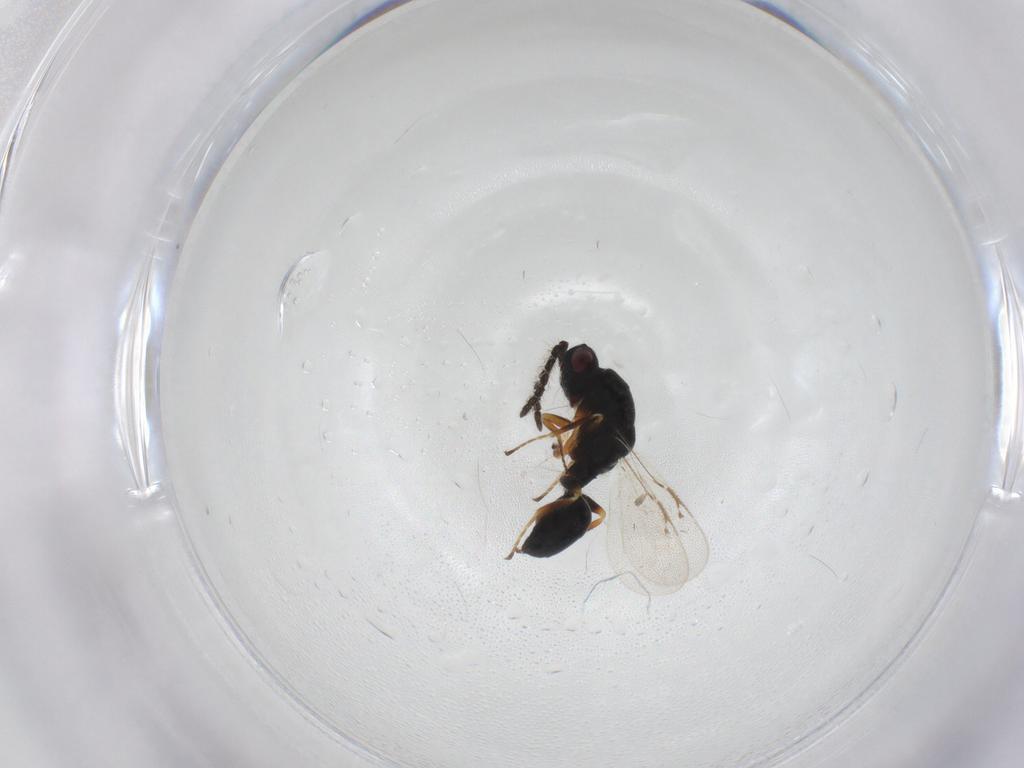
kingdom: Animalia
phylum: Arthropoda
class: Insecta
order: Hymenoptera
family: Eurytomidae
